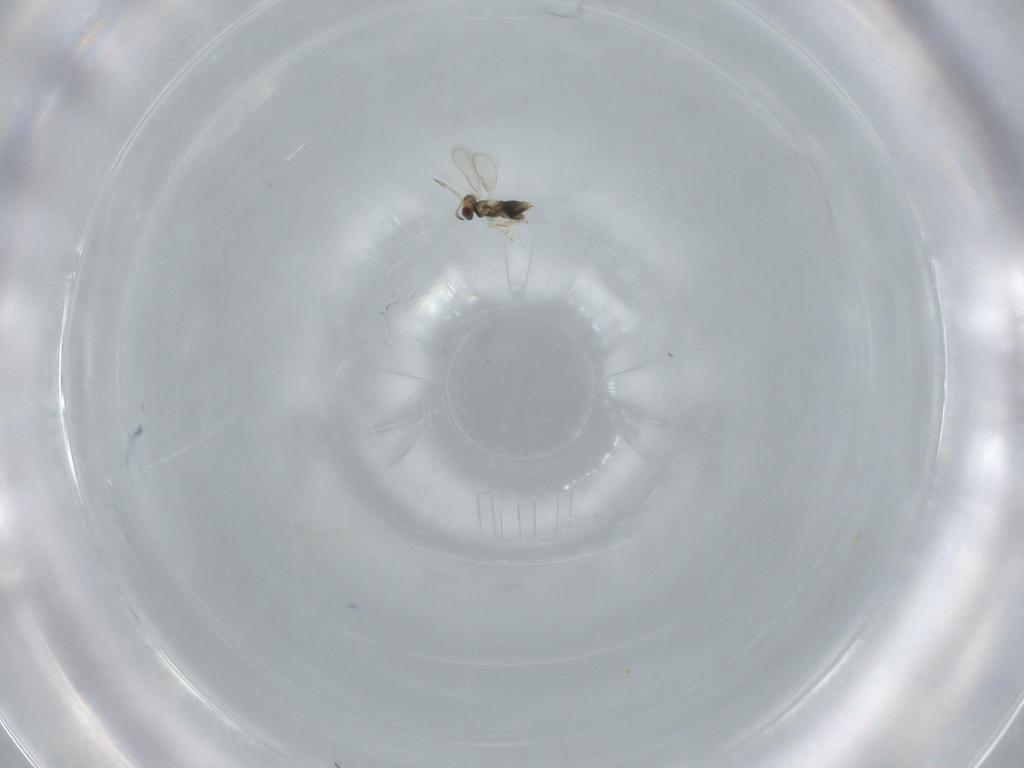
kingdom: Animalia
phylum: Arthropoda
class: Insecta
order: Hymenoptera
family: Aphelinidae
